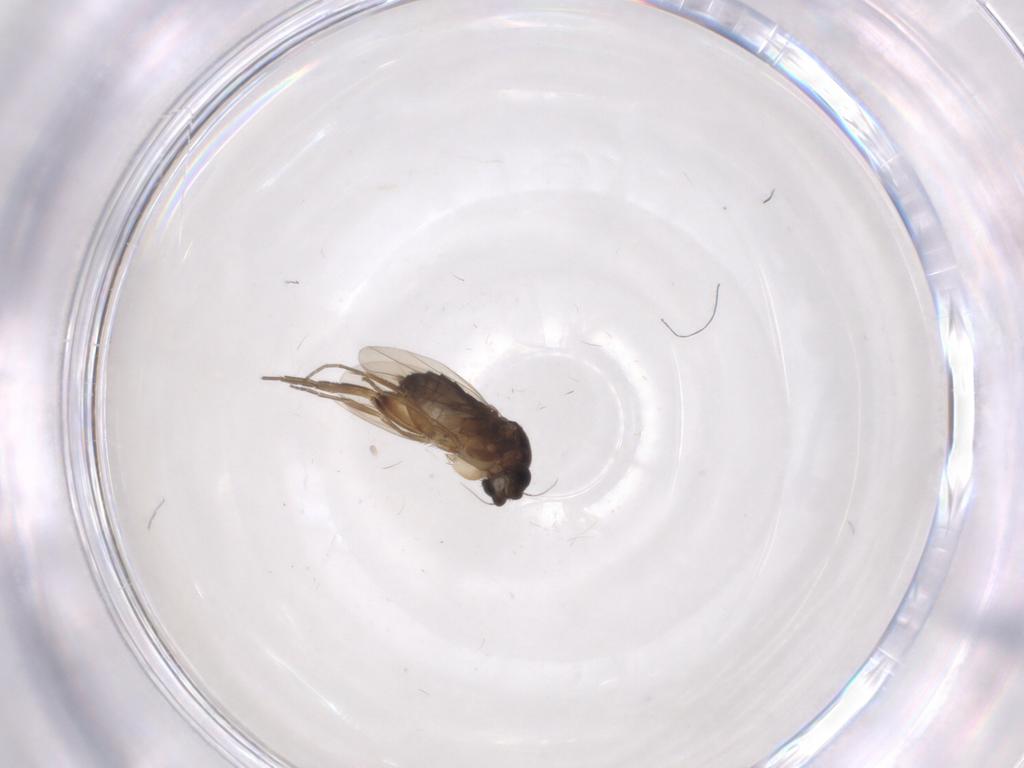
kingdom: Animalia
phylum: Arthropoda
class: Insecta
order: Diptera
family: Phoridae
